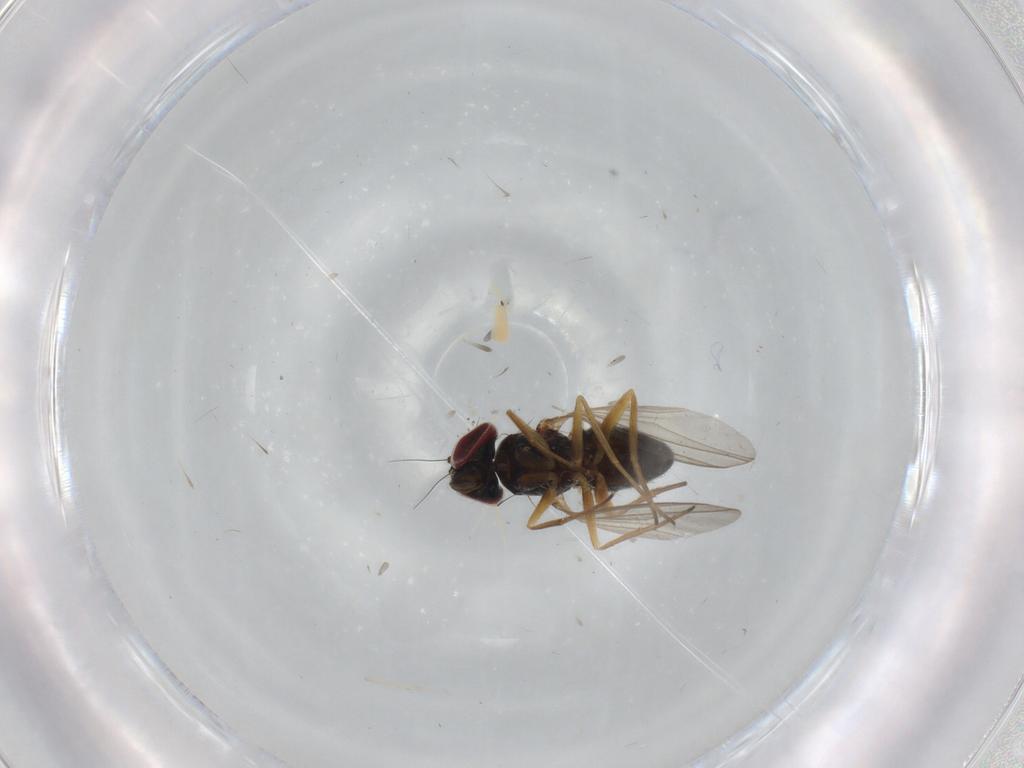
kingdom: Animalia
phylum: Arthropoda
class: Insecta
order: Diptera
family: Dolichopodidae
